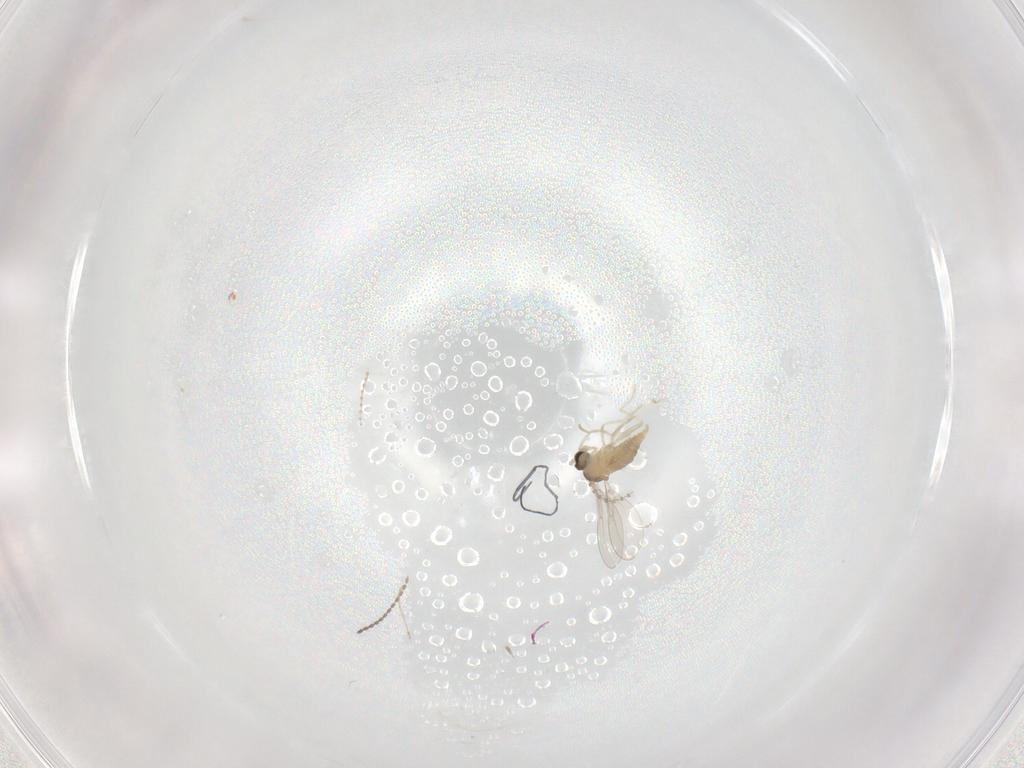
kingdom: Animalia
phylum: Arthropoda
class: Insecta
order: Diptera
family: Cecidomyiidae
